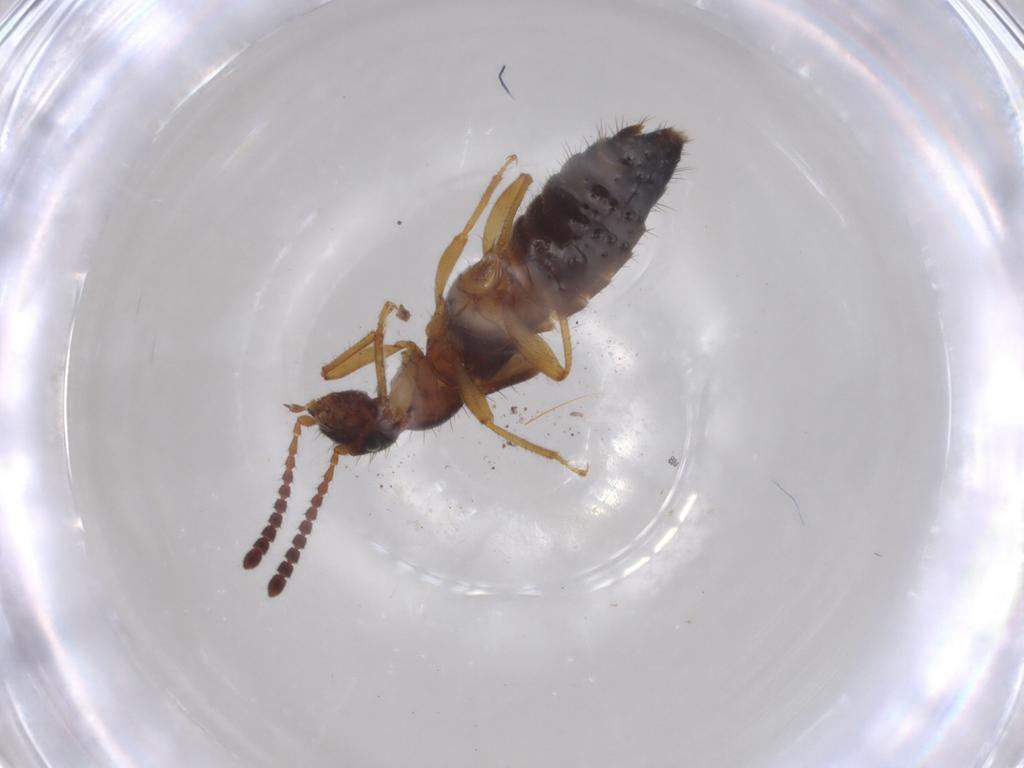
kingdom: Animalia
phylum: Arthropoda
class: Insecta
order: Coleoptera
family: Staphylinidae
